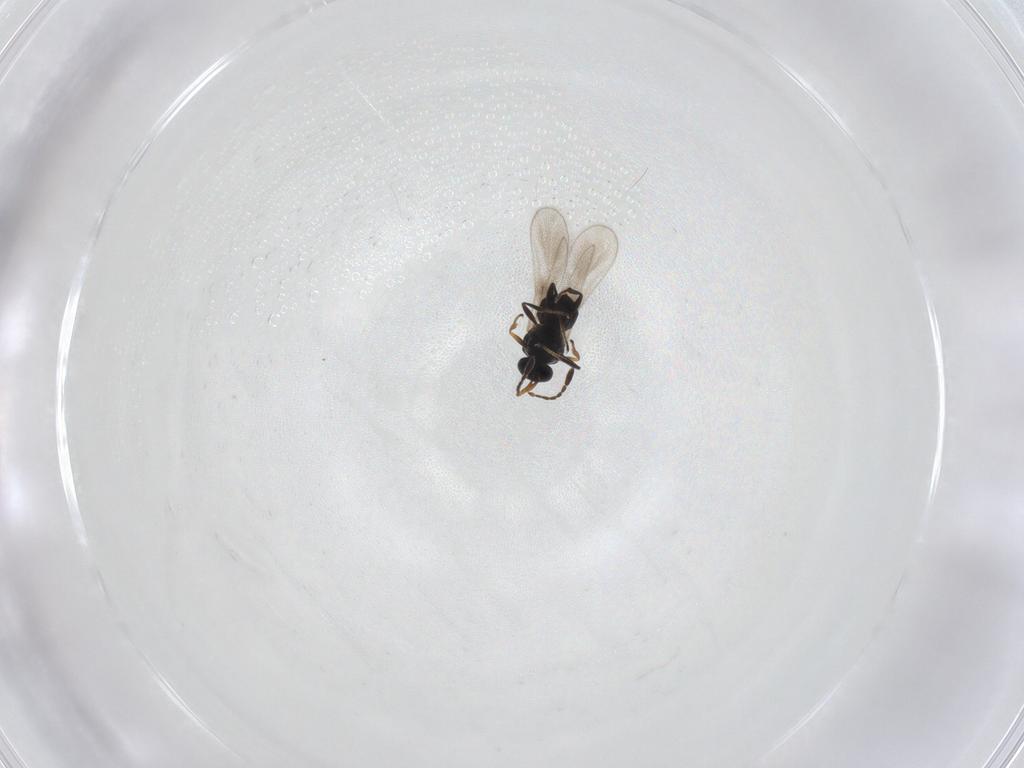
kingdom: Animalia
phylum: Arthropoda
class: Insecta
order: Hymenoptera
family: Platygastridae
